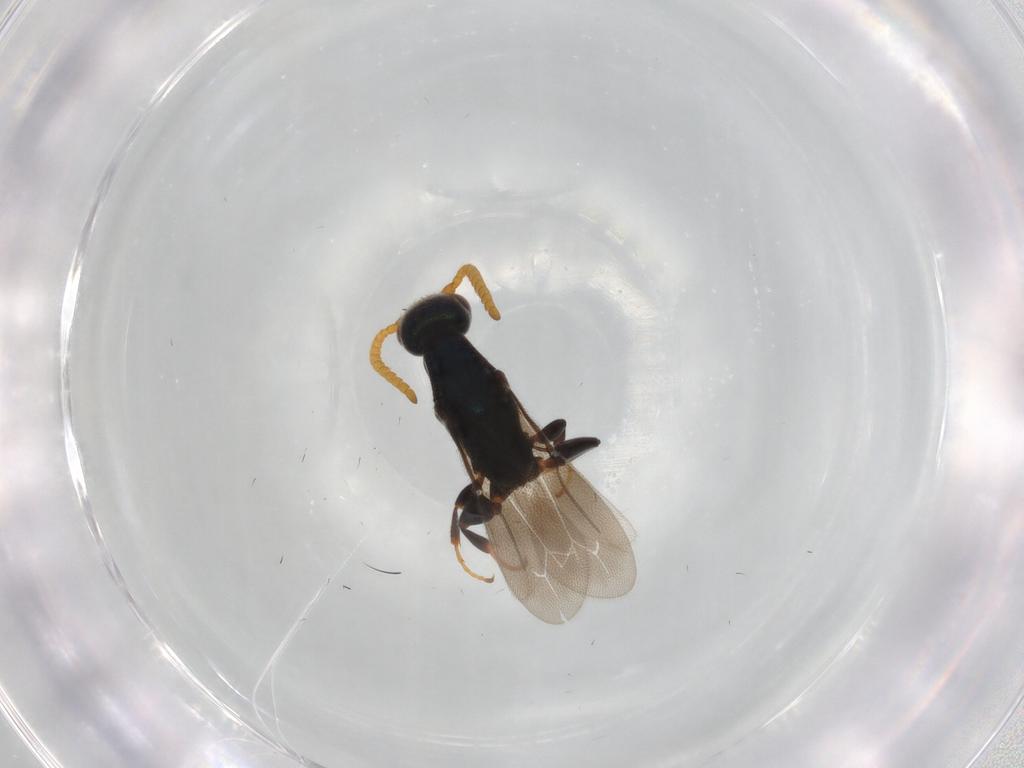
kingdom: Animalia
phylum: Arthropoda
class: Insecta
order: Hymenoptera
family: Bethylidae
